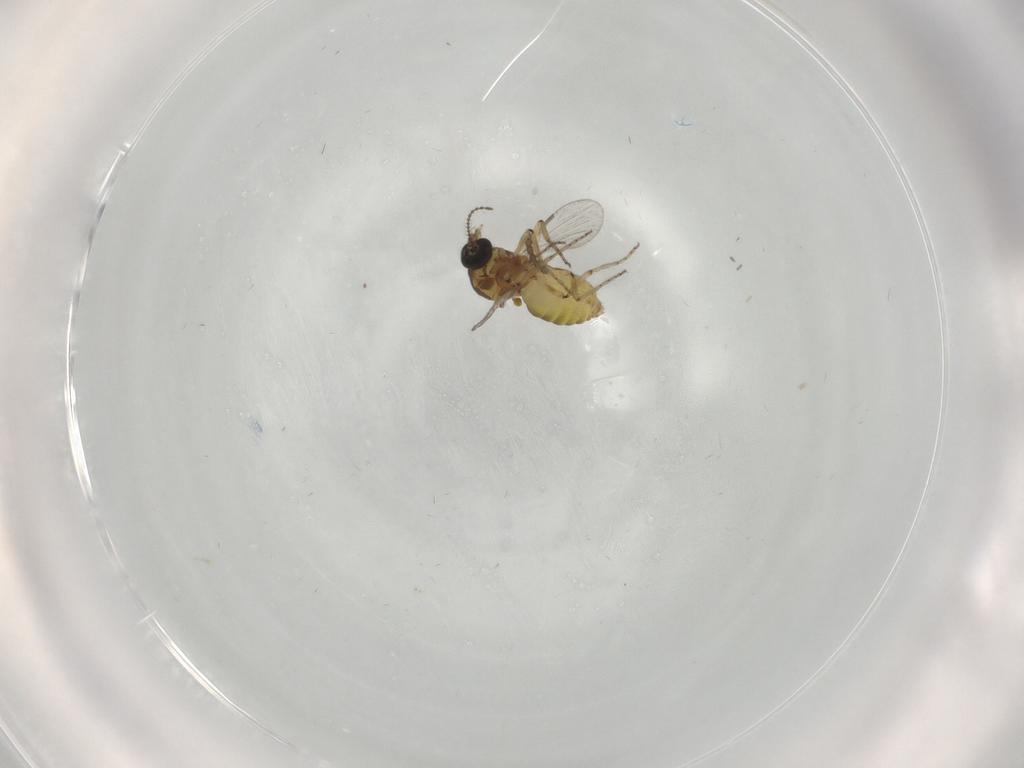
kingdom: Animalia
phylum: Arthropoda
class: Insecta
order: Diptera
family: Ceratopogonidae
